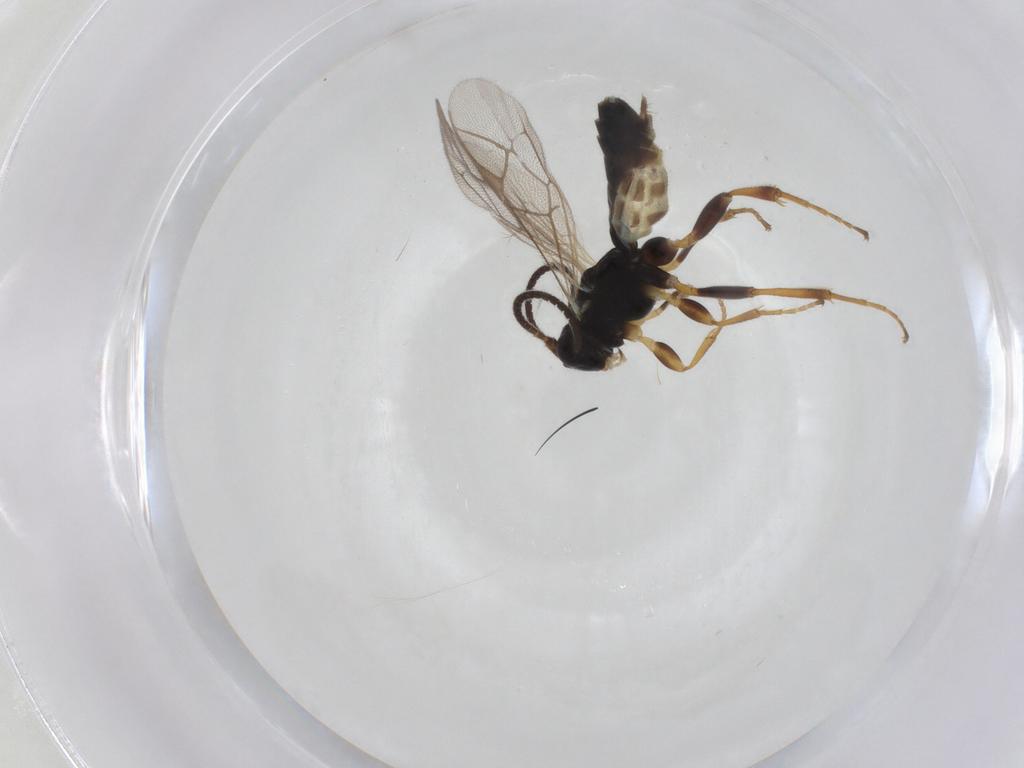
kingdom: Animalia
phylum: Arthropoda
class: Insecta
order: Hymenoptera
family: Ichneumonidae
